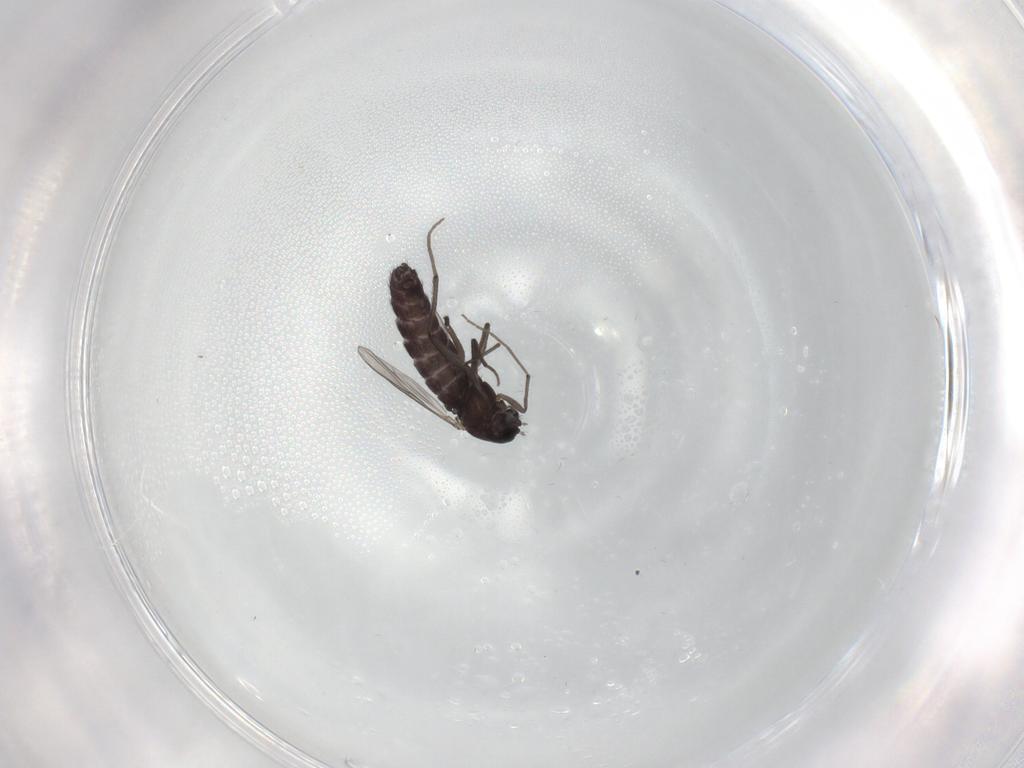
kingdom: Animalia
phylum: Arthropoda
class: Insecta
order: Diptera
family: Chironomidae
